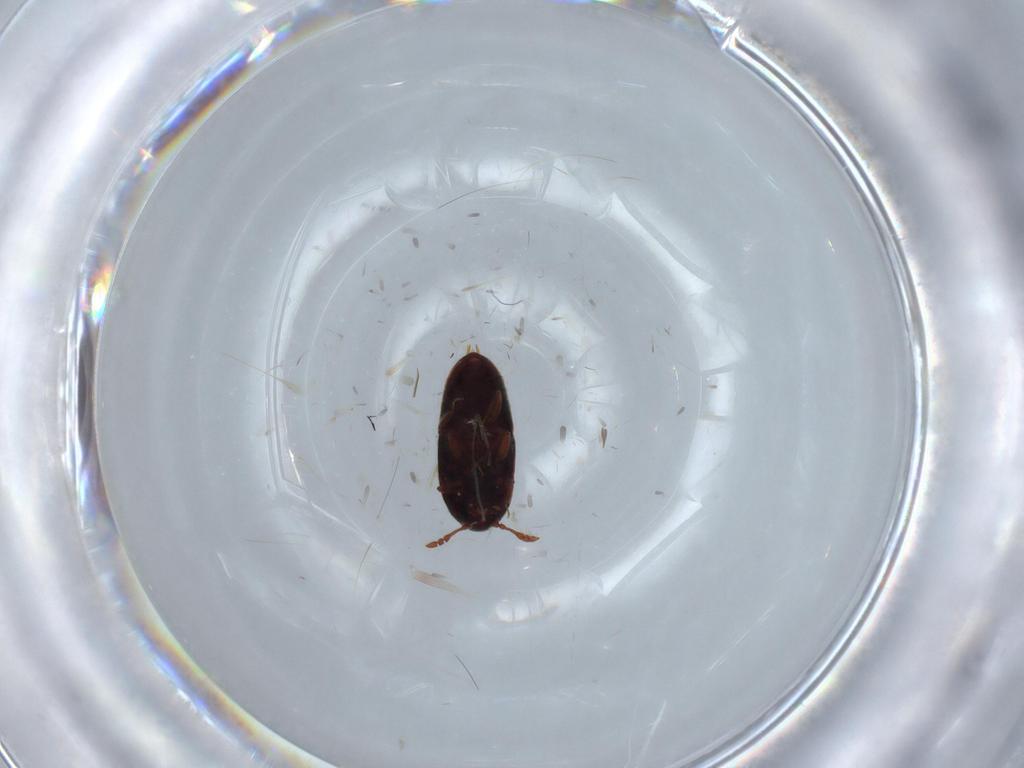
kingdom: Animalia
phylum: Arthropoda
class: Insecta
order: Coleoptera
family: Throscidae
